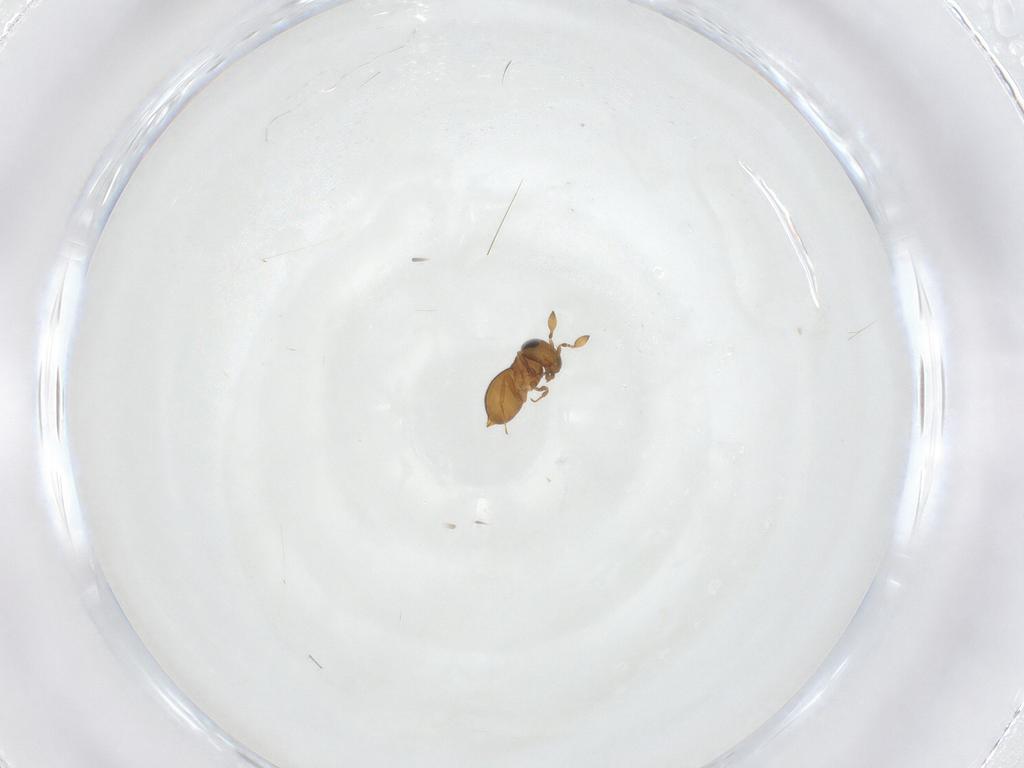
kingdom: Animalia
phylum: Arthropoda
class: Insecta
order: Hymenoptera
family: Scelionidae
